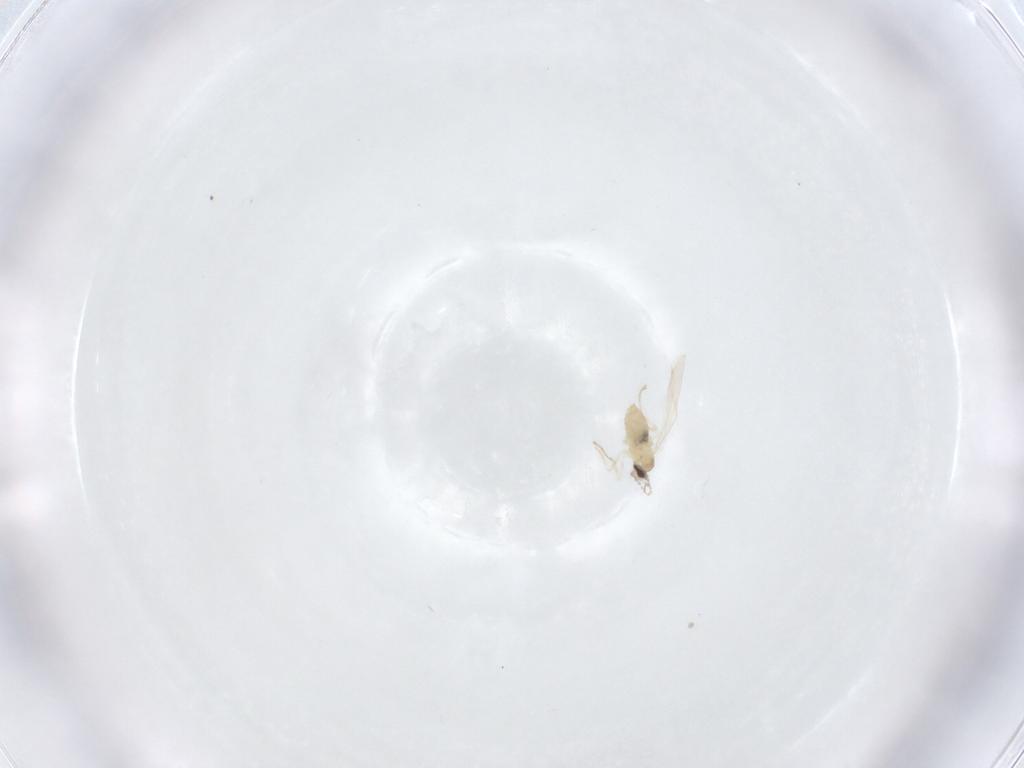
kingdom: Animalia
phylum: Arthropoda
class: Insecta
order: Diptera
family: Cecidomyiidae
